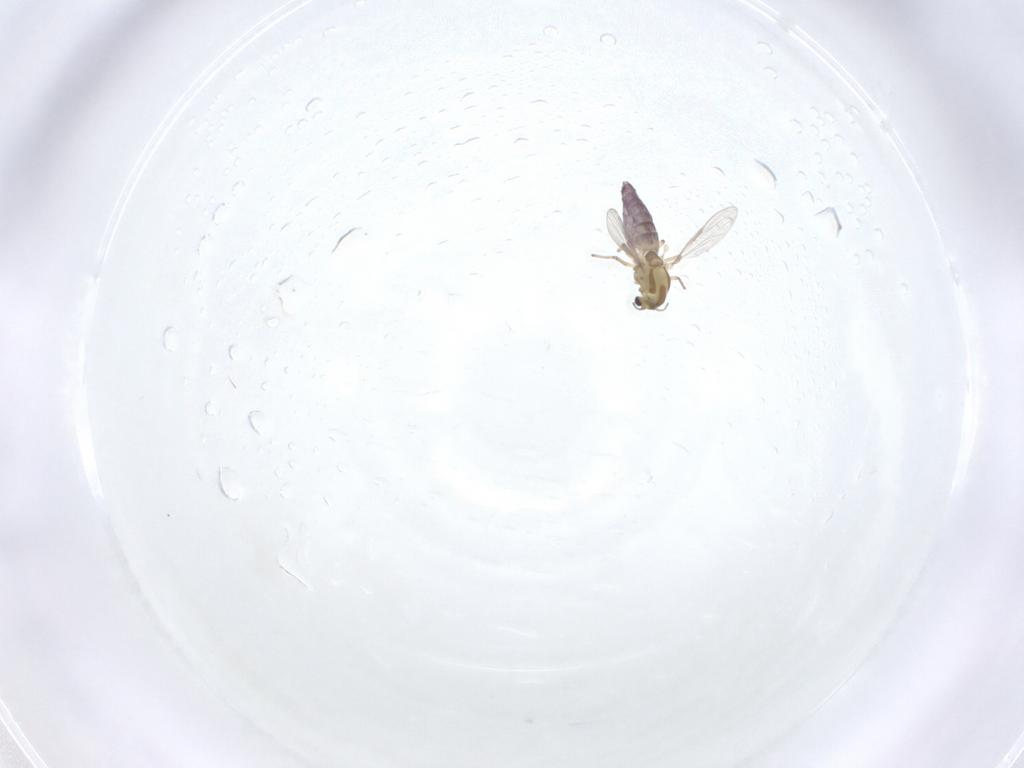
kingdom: Animalia
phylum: Arthropoda
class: Insecta
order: Diptera
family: Chironomidae
